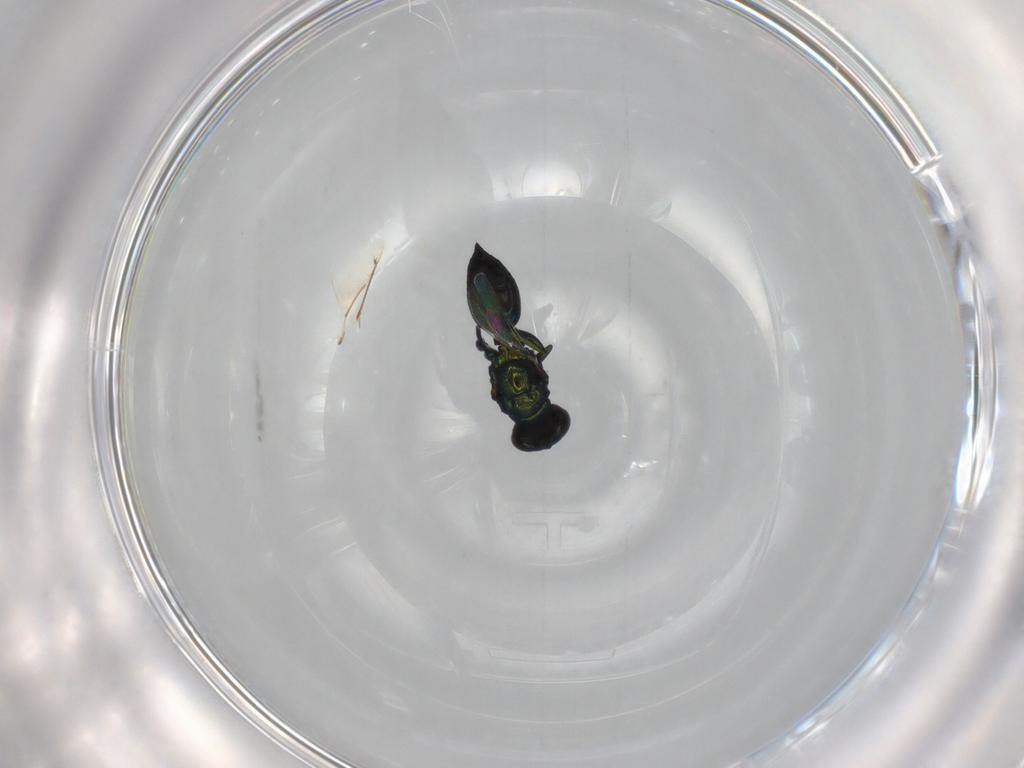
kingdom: Animalia
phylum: Arthropoda
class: Insecta
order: Hymenoptera
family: Eulophidae
